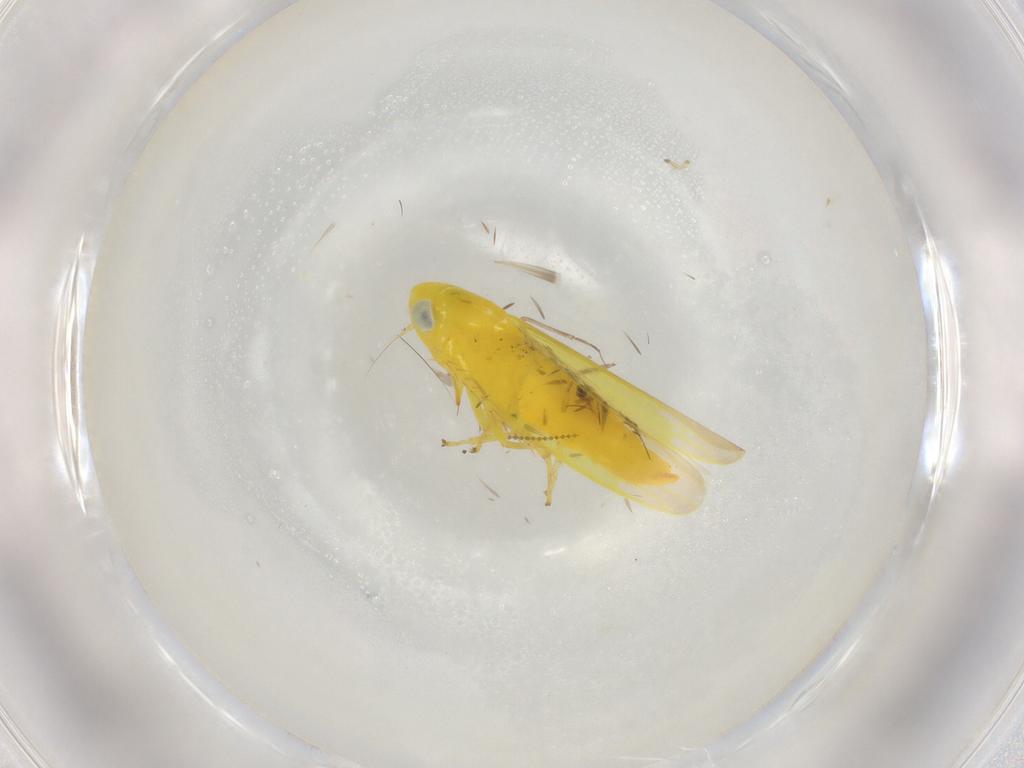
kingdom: Animalia
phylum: Arthropoda
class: Insecta
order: Hemiptera
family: Cicadellidae
